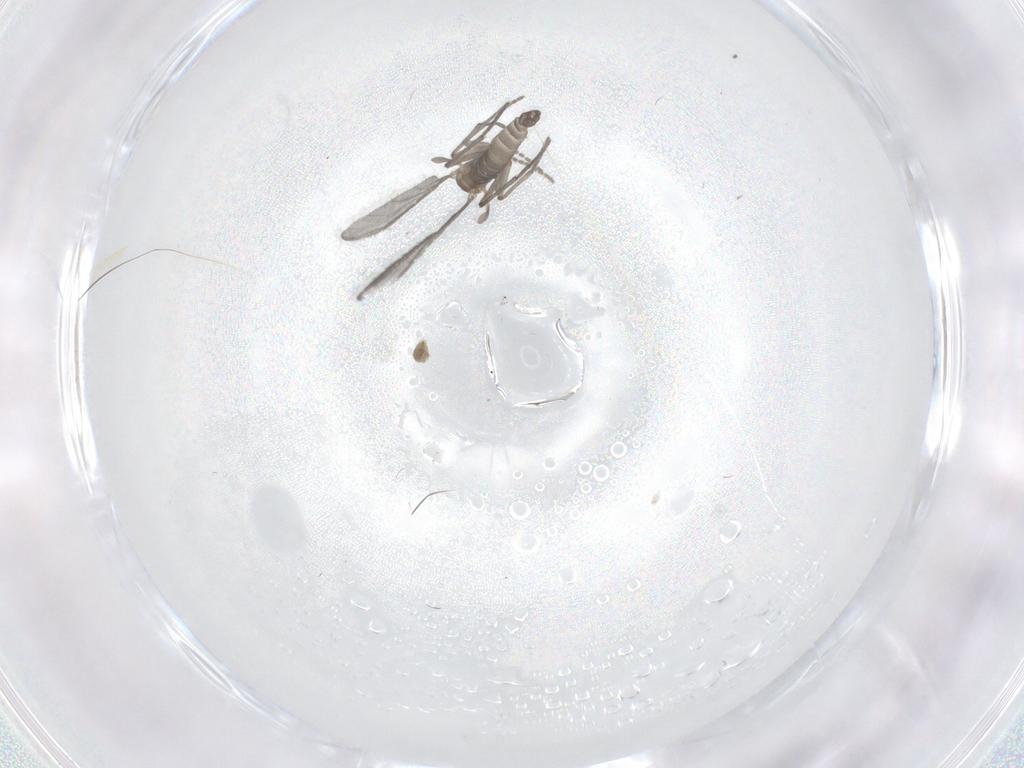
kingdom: Animalia
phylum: Arthropoda
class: Insecta
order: Diptera
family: Sciaridae
